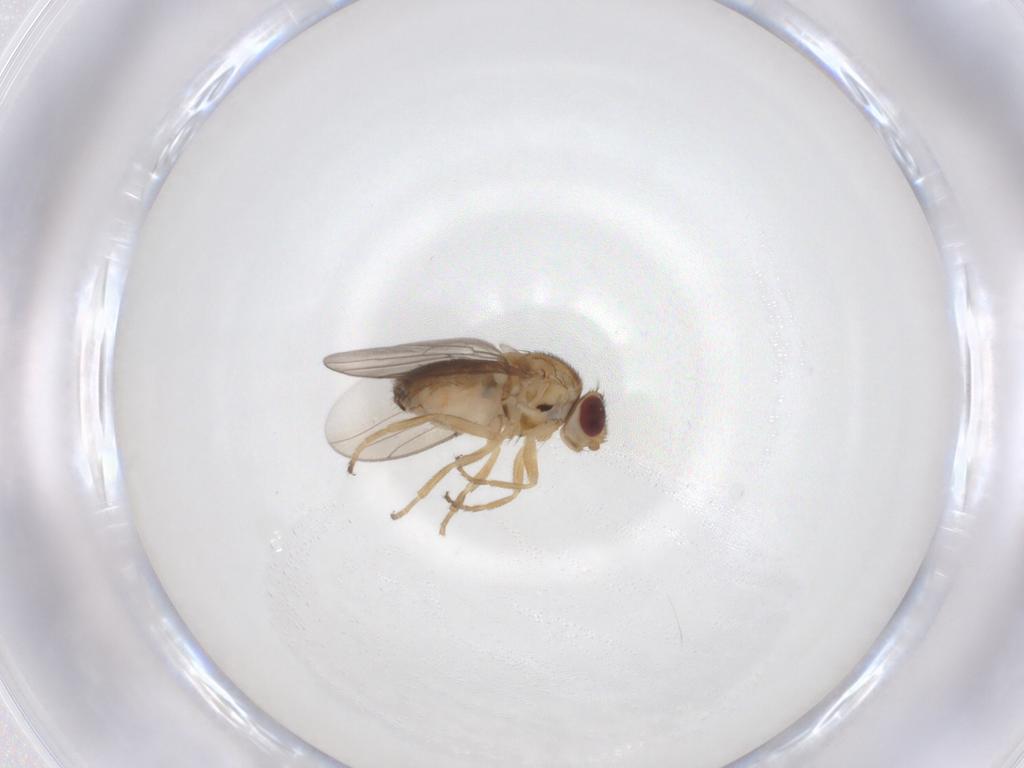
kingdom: Animalia
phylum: Arthropoda
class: Insecta
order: Diptera
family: Chloropidae
